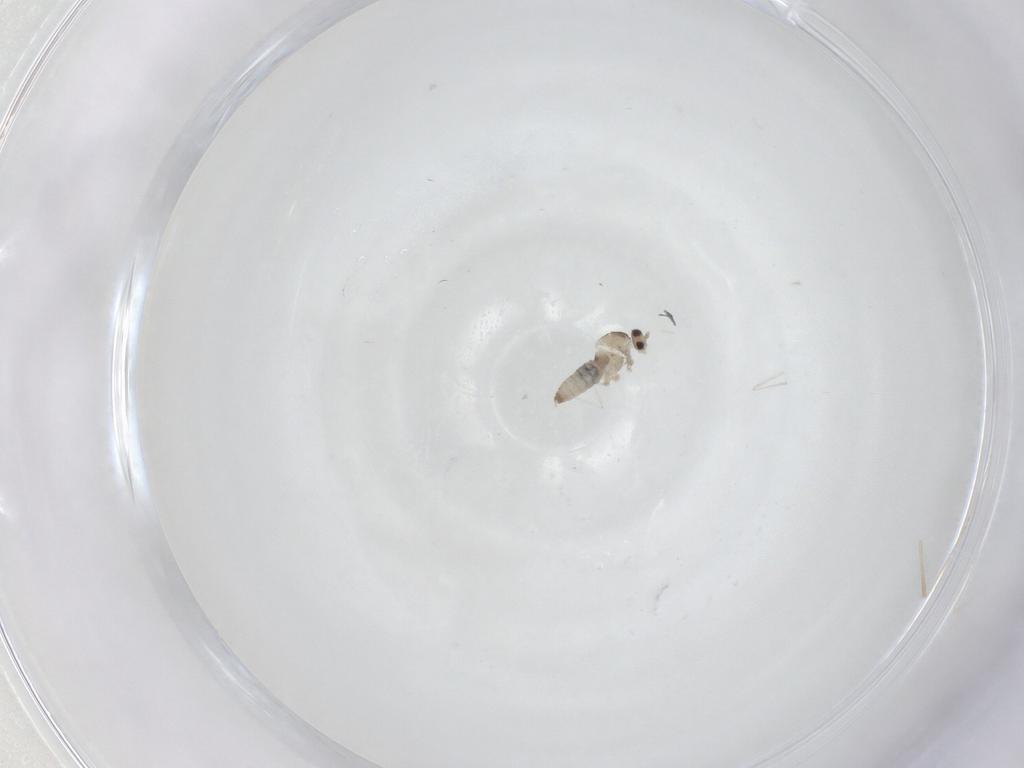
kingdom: Animalia
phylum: Arthropoda
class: Insecta
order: Diptera
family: Cecidomyiidae
